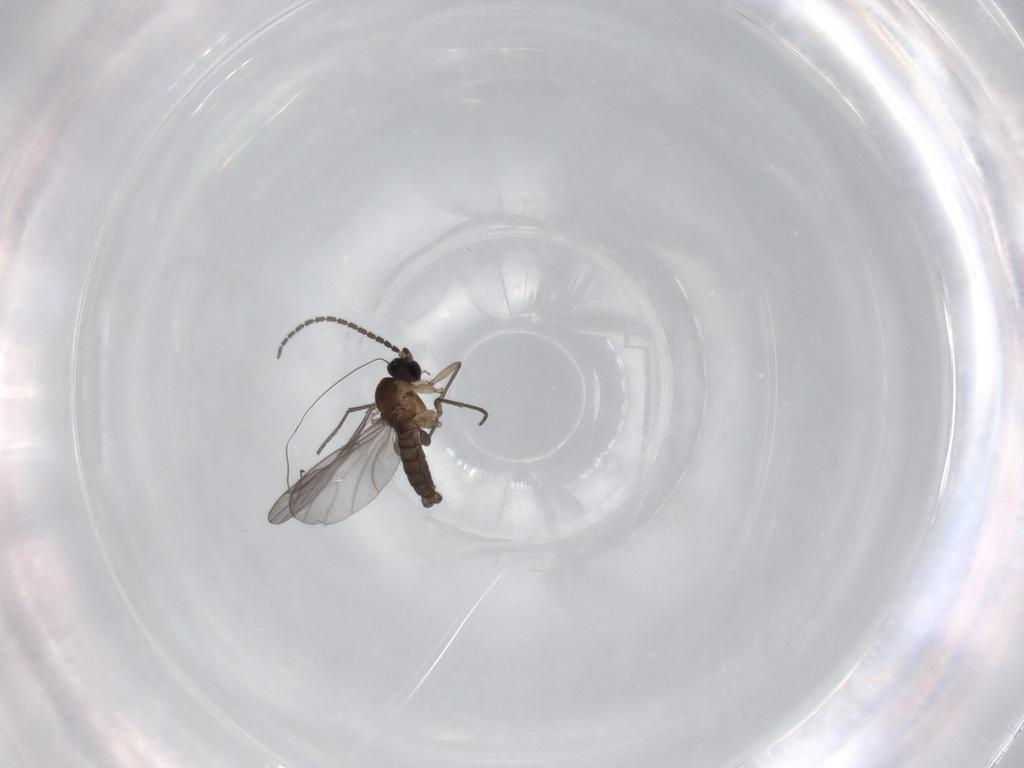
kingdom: Animalia
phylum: Arthropoda
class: Insecta
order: Diptera
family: Sciaridae
